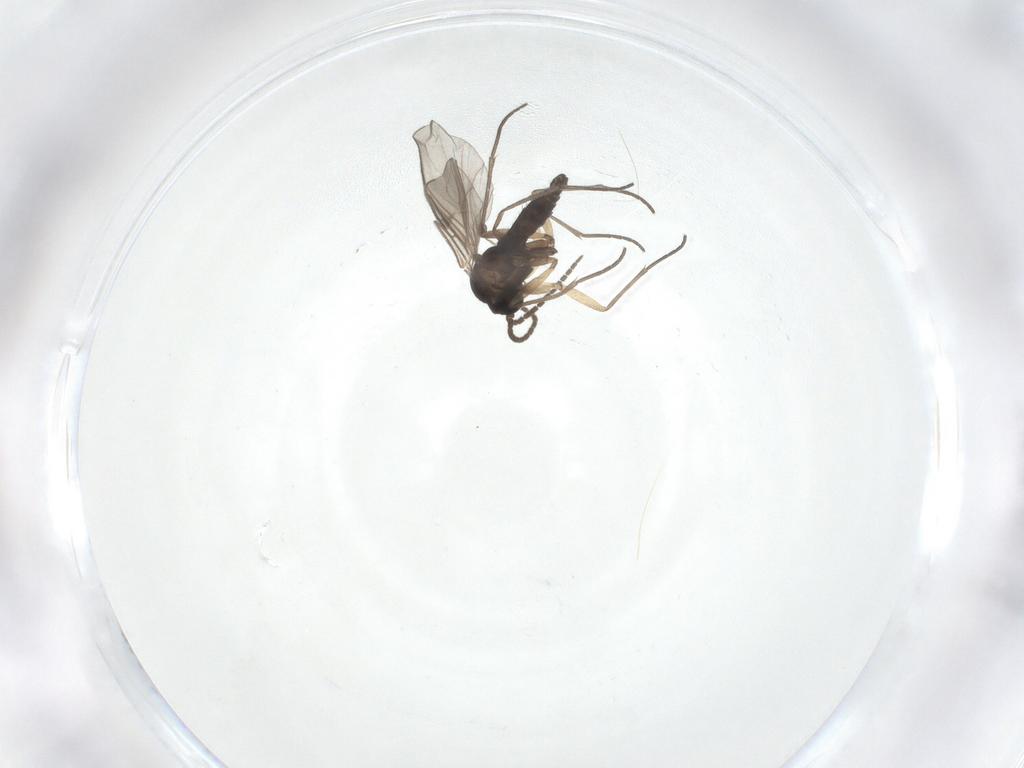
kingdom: Animalia
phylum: Arthropoda
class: Insecta
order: Diptera
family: Sciaridae
